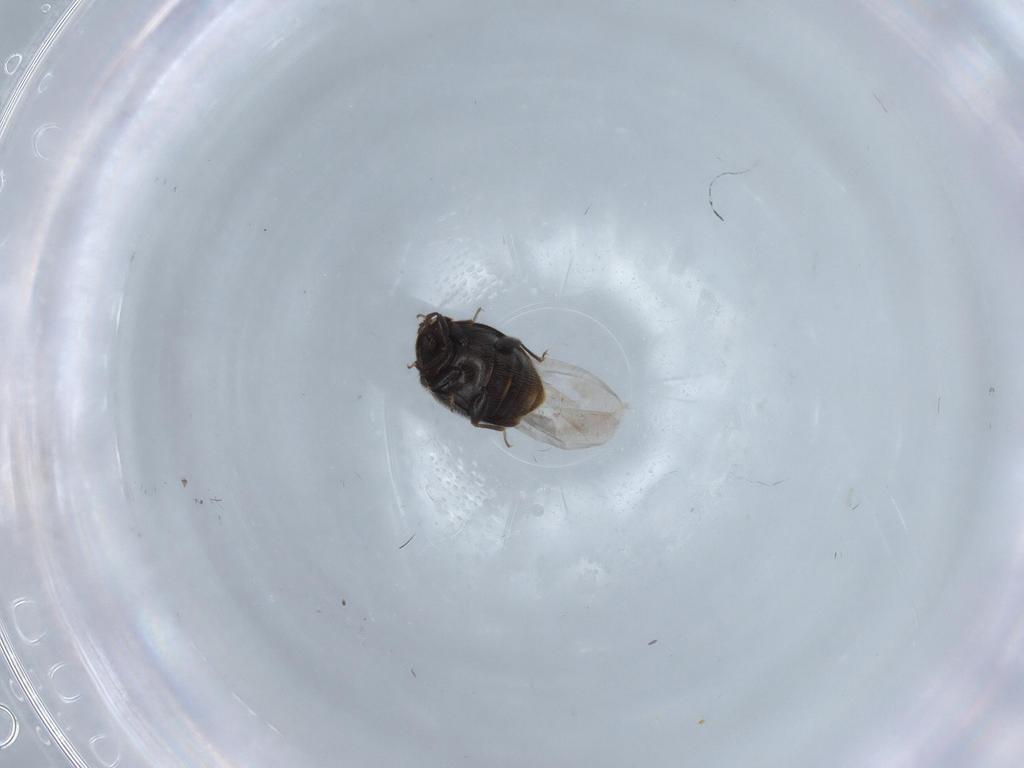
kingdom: Animalia
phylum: Arthropoda
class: Insecta
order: Coleoptera
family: Corylophidae
